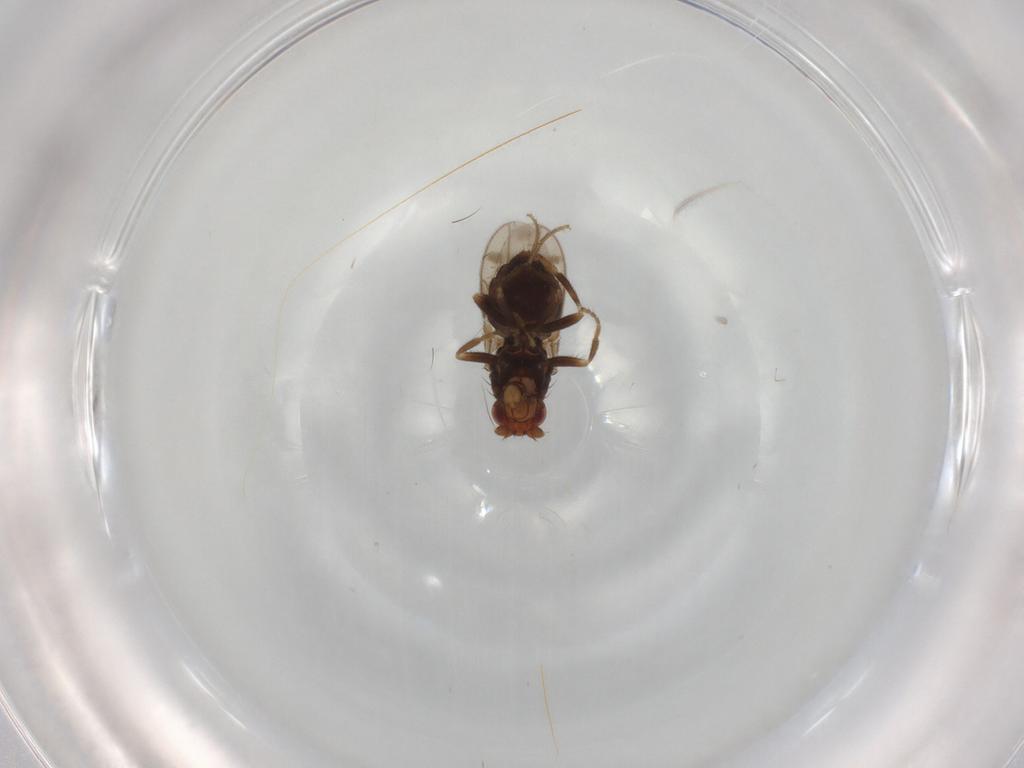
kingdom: Animalia
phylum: Arthropoda
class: Insecta
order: Diptera
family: Sphaeroceridae
